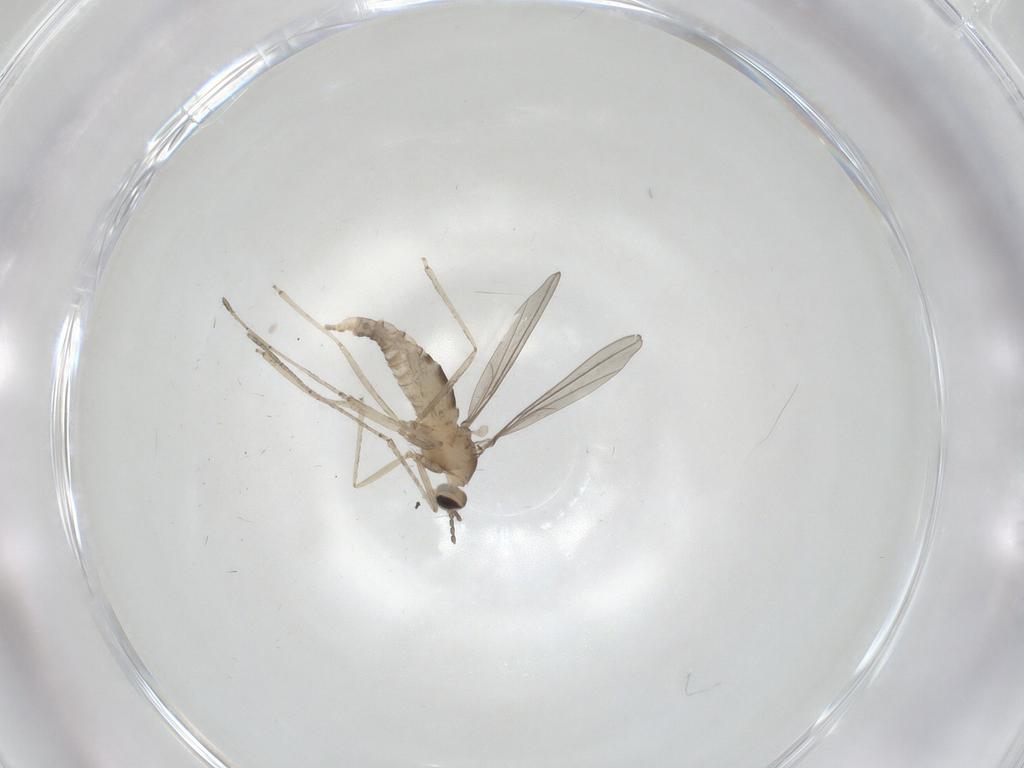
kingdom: Animalia
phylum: Arthropoda
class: Insecta
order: Diptera
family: Cecidomyiidae
